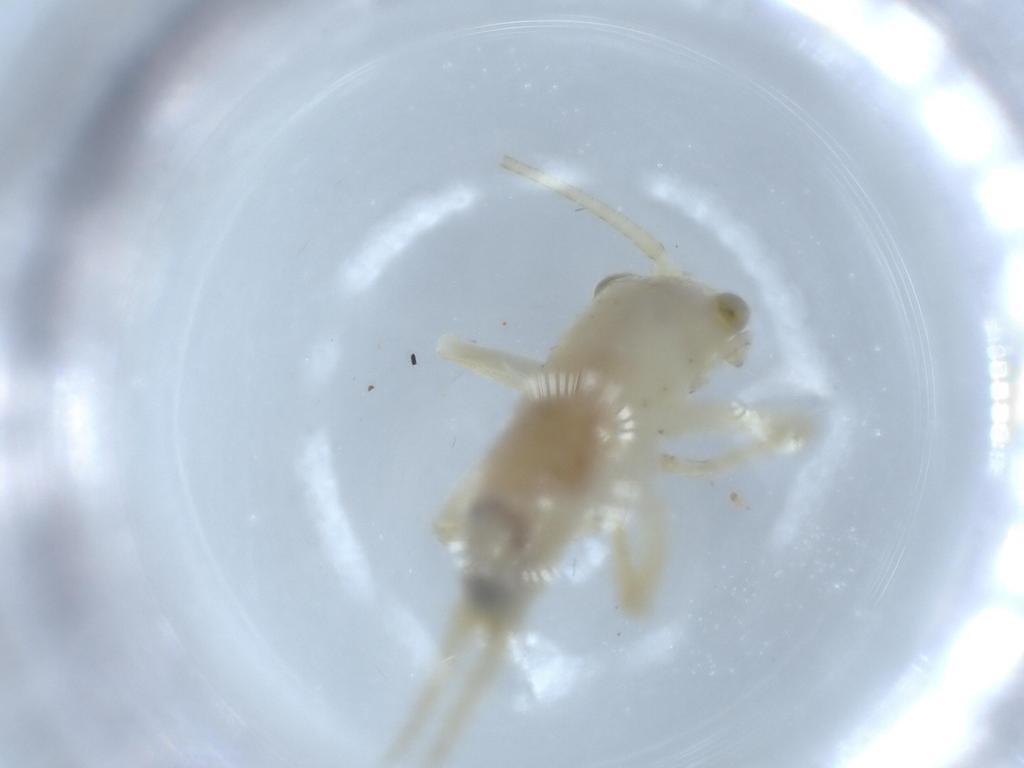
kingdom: Animalia
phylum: Arthropoda
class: Insecta
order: Orthoptera
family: Trigonidiidae
